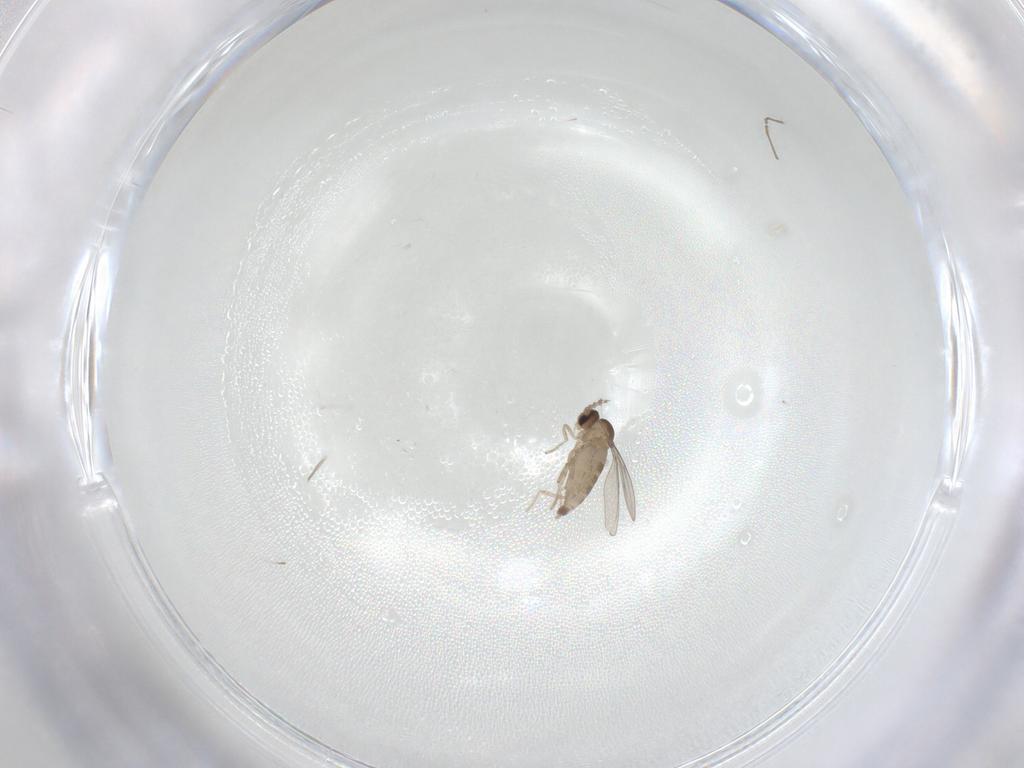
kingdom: Animalia
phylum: Arthropoda
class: Insecta
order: Diptera
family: Cecidomyiidae
